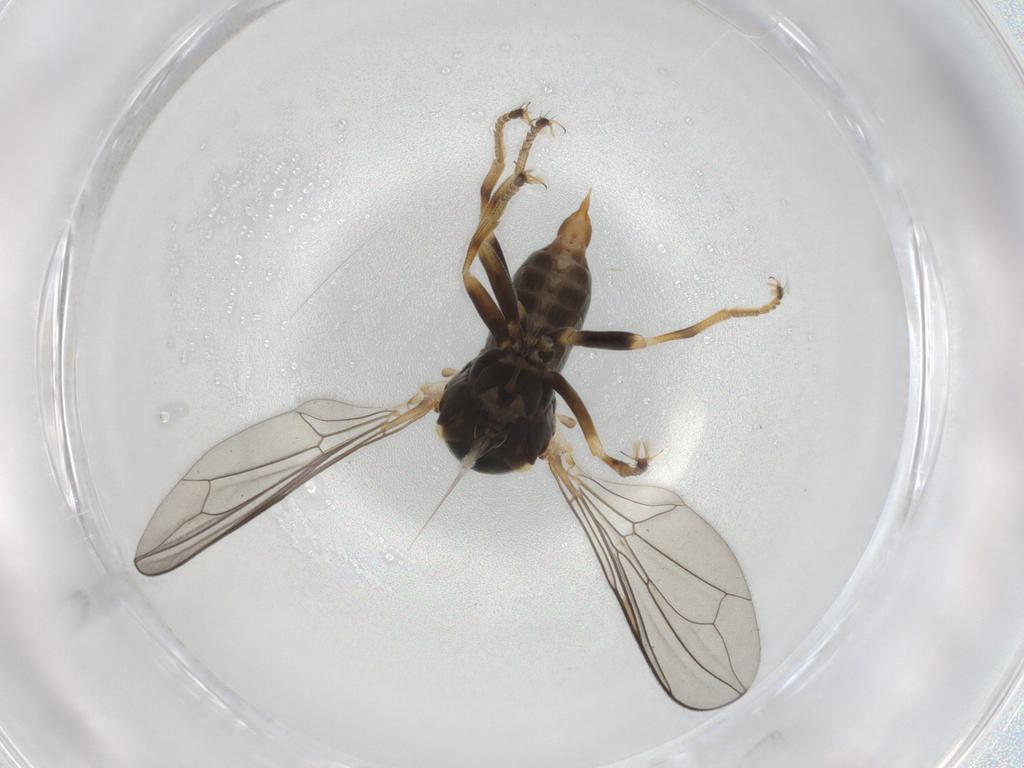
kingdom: Animalia
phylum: Arthropoda
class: Insecta
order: Diptera
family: Pipunculidae
